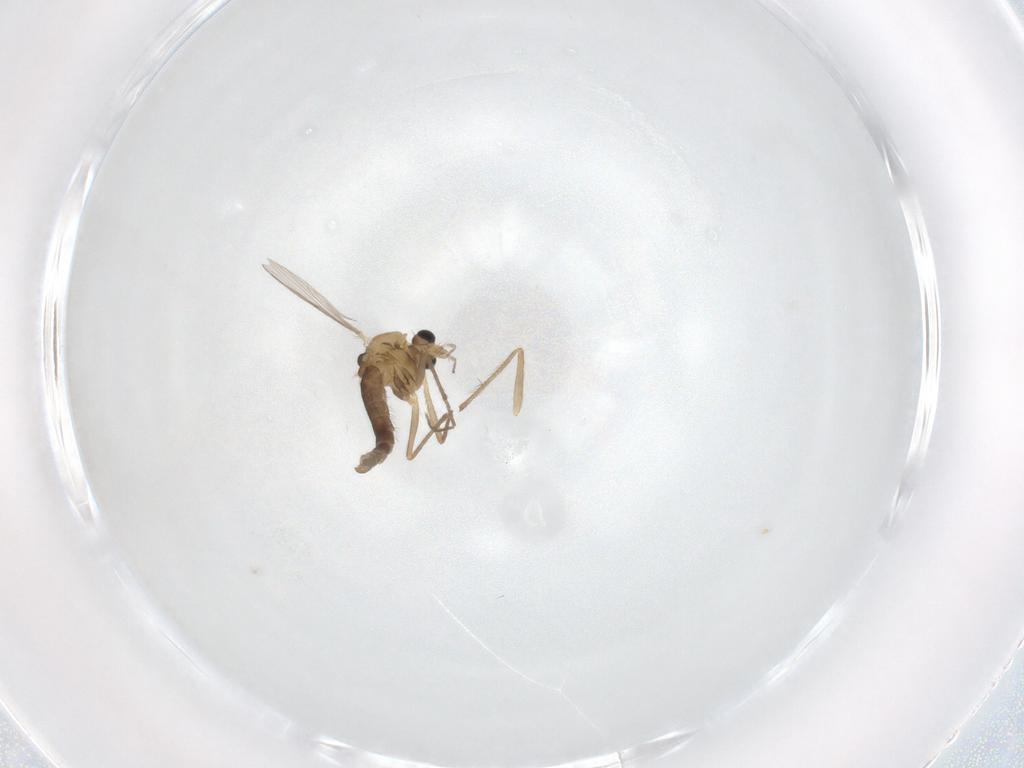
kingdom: Animalia
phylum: Arthropoda
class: Insecta
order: Diptera
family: Chironomidae
